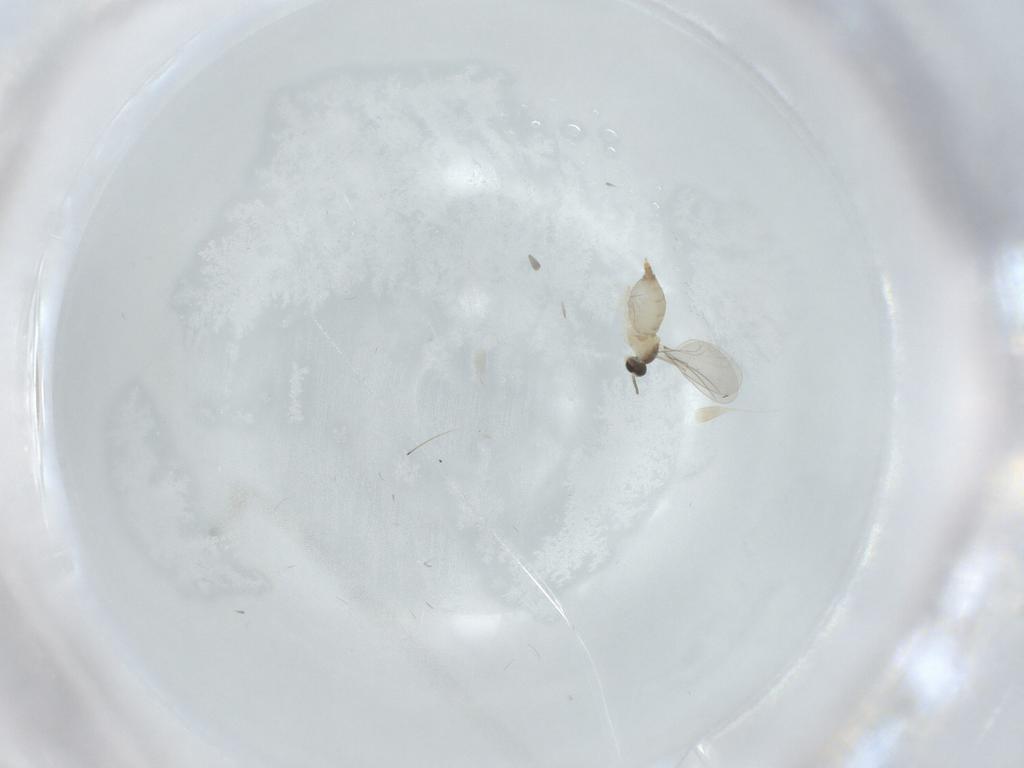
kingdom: Animalia
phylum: Arthropoda
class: Insecta
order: Diptera
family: Cecidomyiidae
